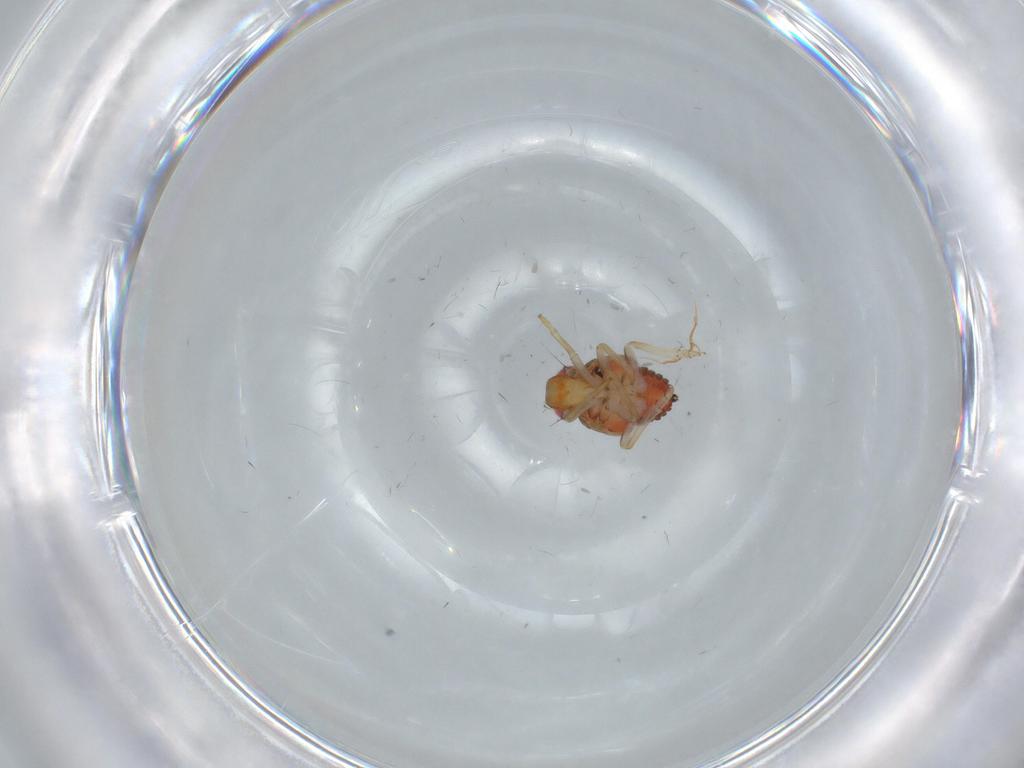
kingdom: Animalia
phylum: Arthropoda
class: Insecta
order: Hemiptera
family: Issidae
